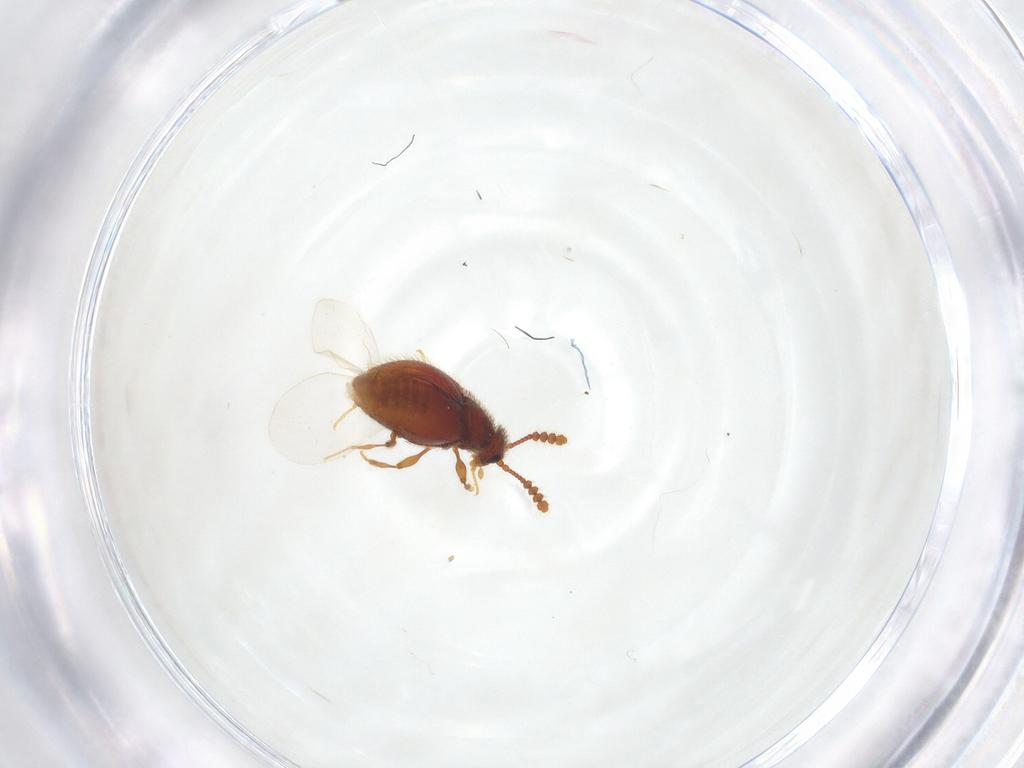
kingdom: Animalia
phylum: Arthropoda
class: Insecta
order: Coleoptera
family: Staphylinidae
